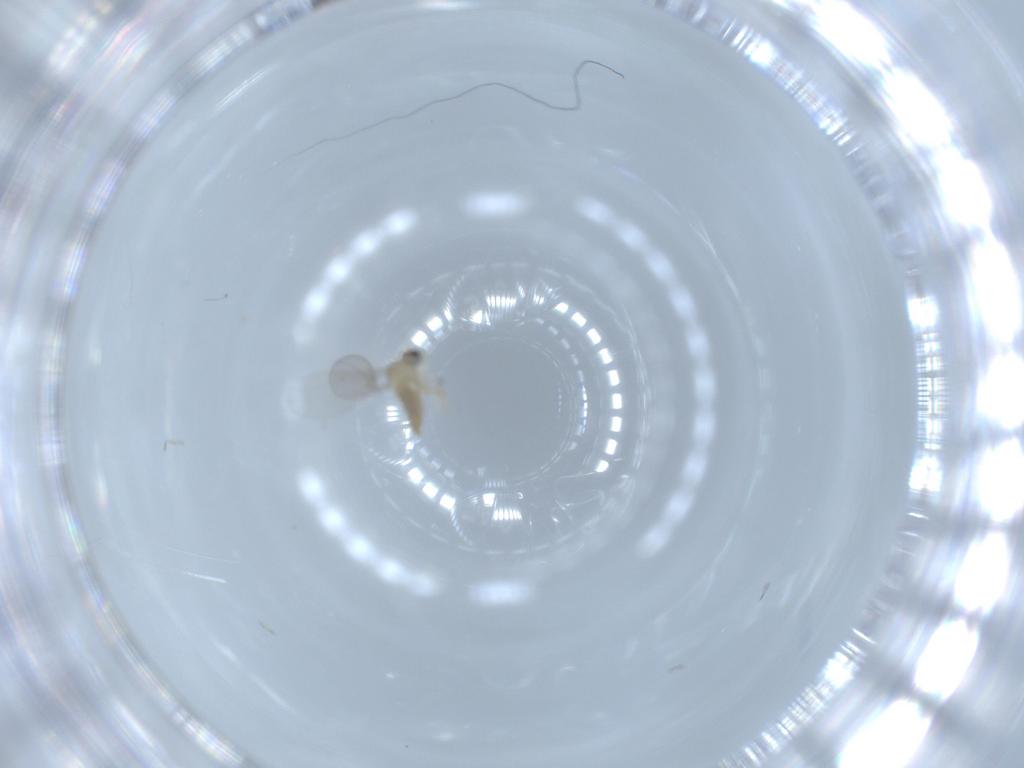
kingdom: Animalia
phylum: Arthropoda
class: Insecta
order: Diptera
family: Cecidomyiidae
